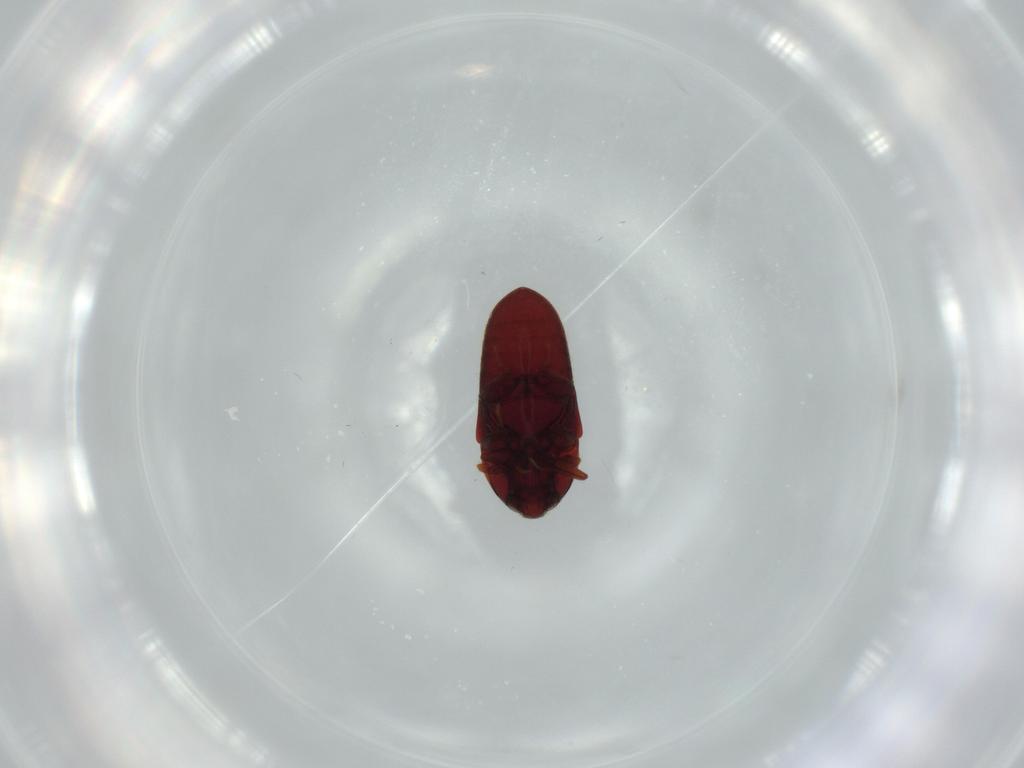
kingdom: Animalia
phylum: Arthropoda
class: Insecta
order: Coleoptera
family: Throscidae
